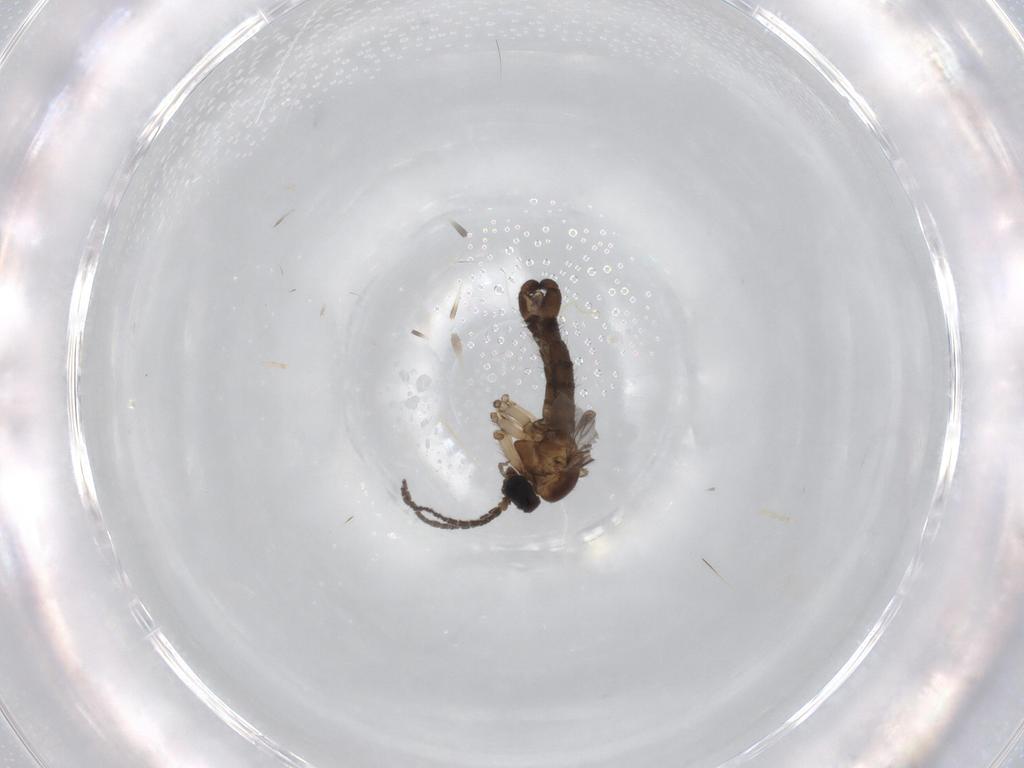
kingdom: Animalia
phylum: Arthropoda
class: Insecta
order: Diptera
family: Sciaridae
